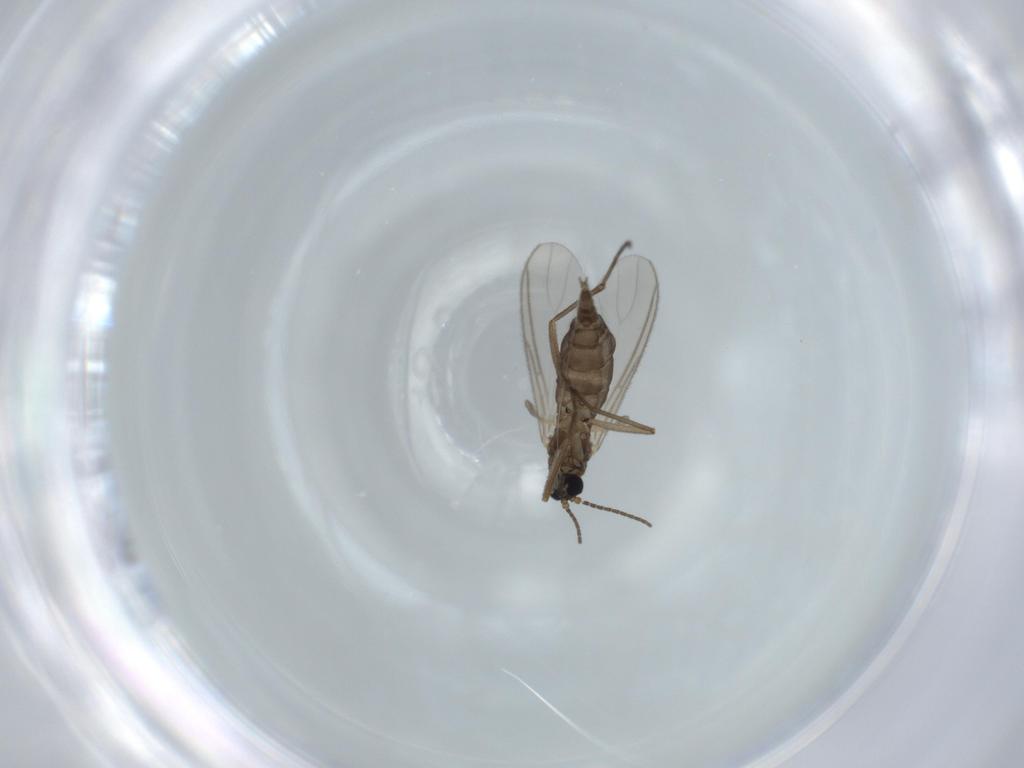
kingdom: Animalia
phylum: Arthropoda
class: Insecta
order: Diptera
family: Sciaridae
